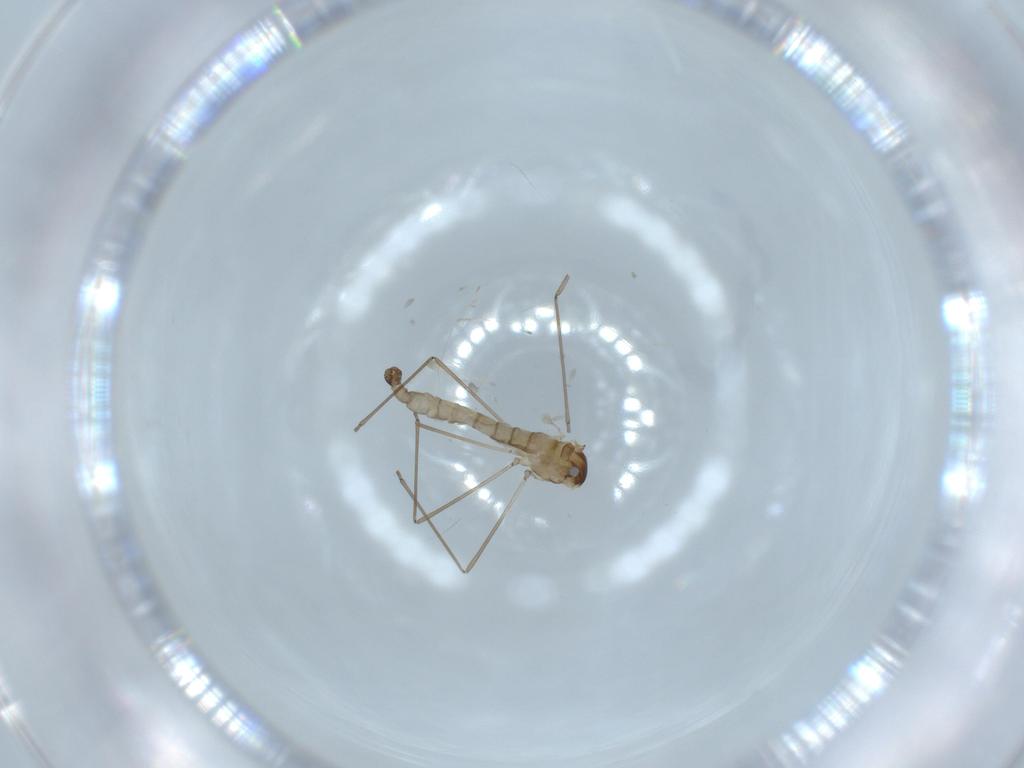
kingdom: Animalia
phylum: Arthropoda
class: Insecta
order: Diptera
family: Cecidomyiidae
